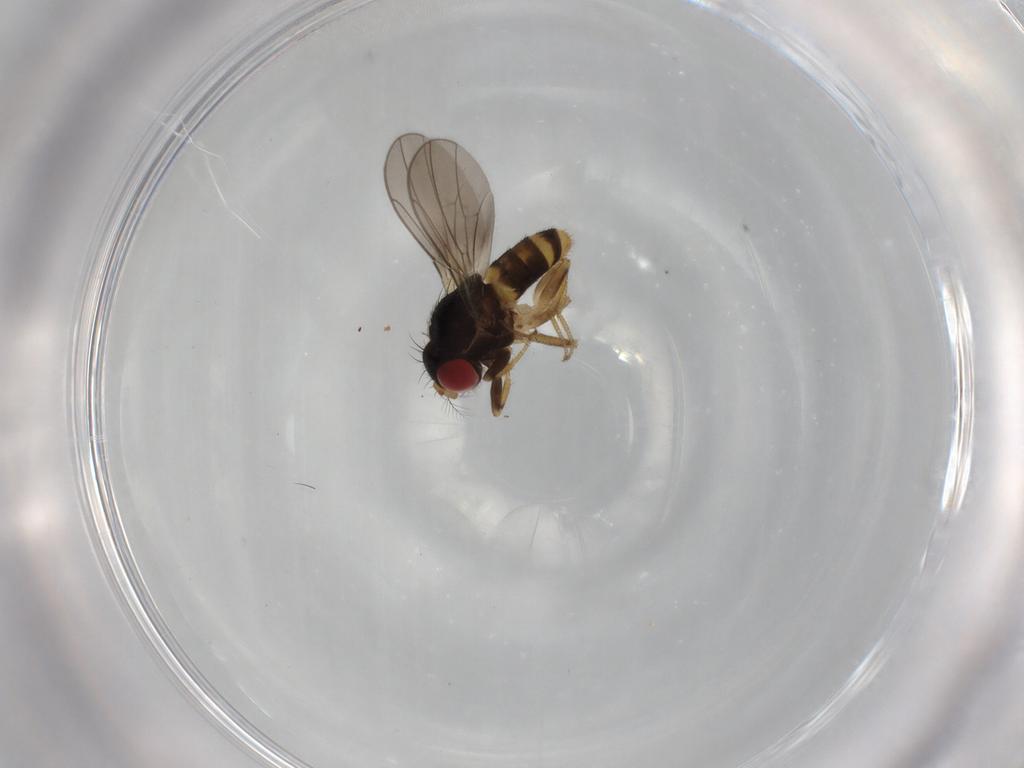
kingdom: Animalia
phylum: Arthropoda
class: Insecta
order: Diptera
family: Drosophilidae
